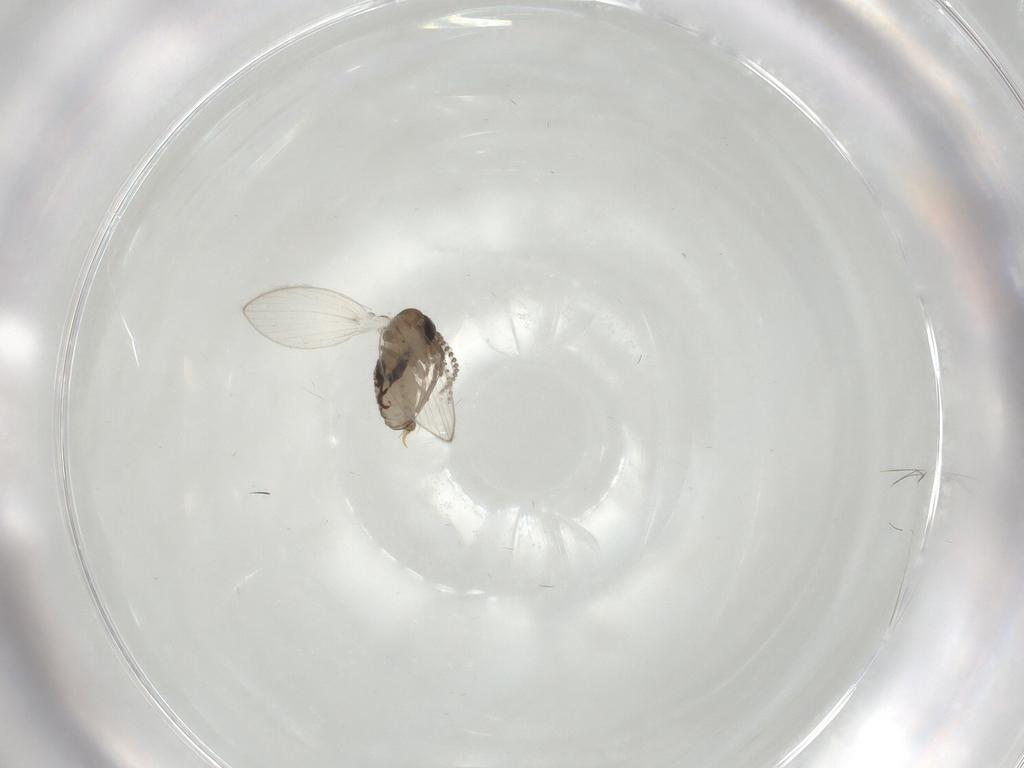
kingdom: Animalia
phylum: Arthropoda
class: Insecta
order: Diptera
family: Psychodidae
